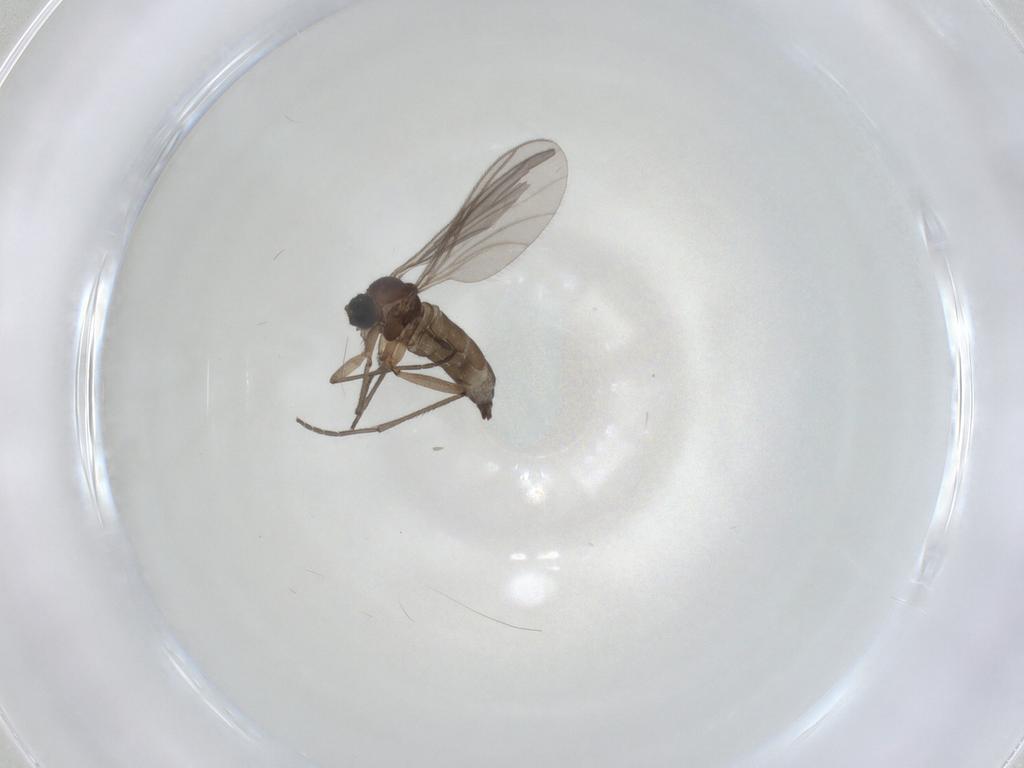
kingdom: Animalia
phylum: Arthropoda
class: Insecta
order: Diptera
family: Sciaridae
